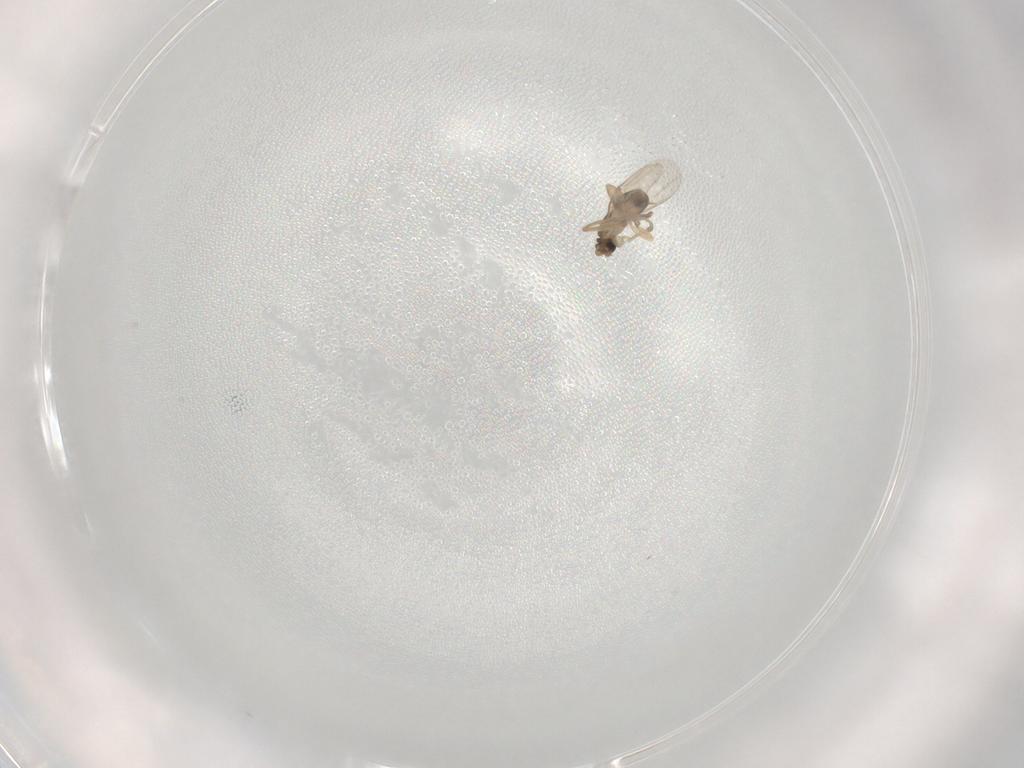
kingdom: Animalia
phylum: Arthropoda
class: Insecta
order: Diptera
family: Phoridae
